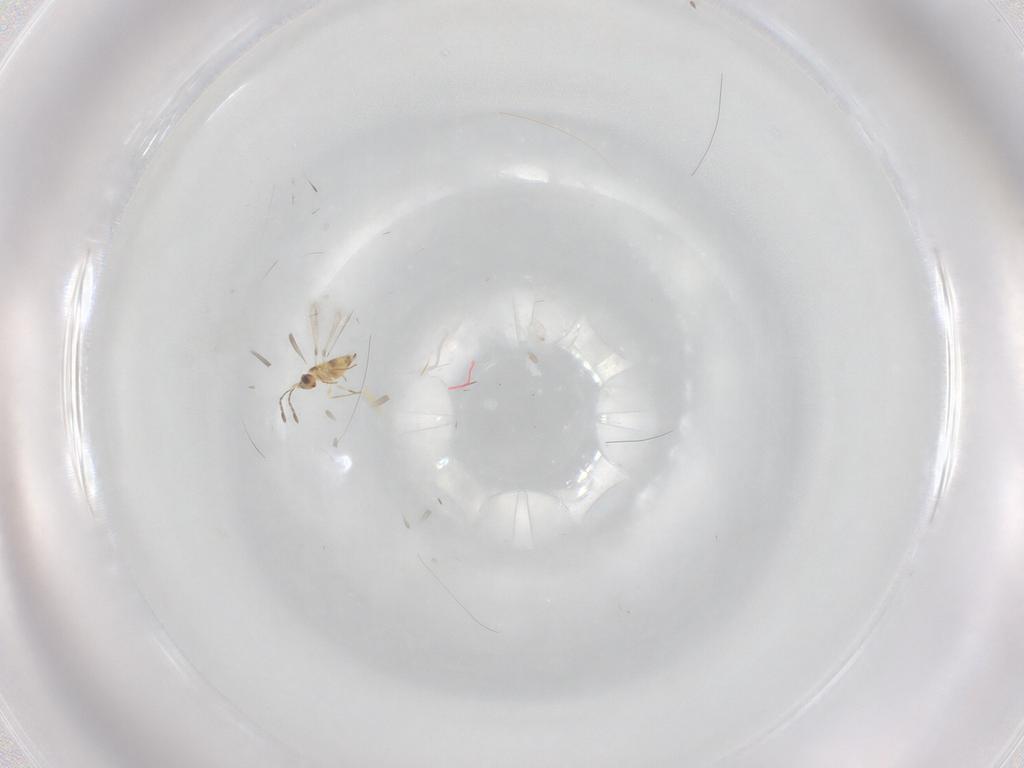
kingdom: Animalia
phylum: Arthropoda
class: Insecta
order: Hymenoptera
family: Mymaridae
